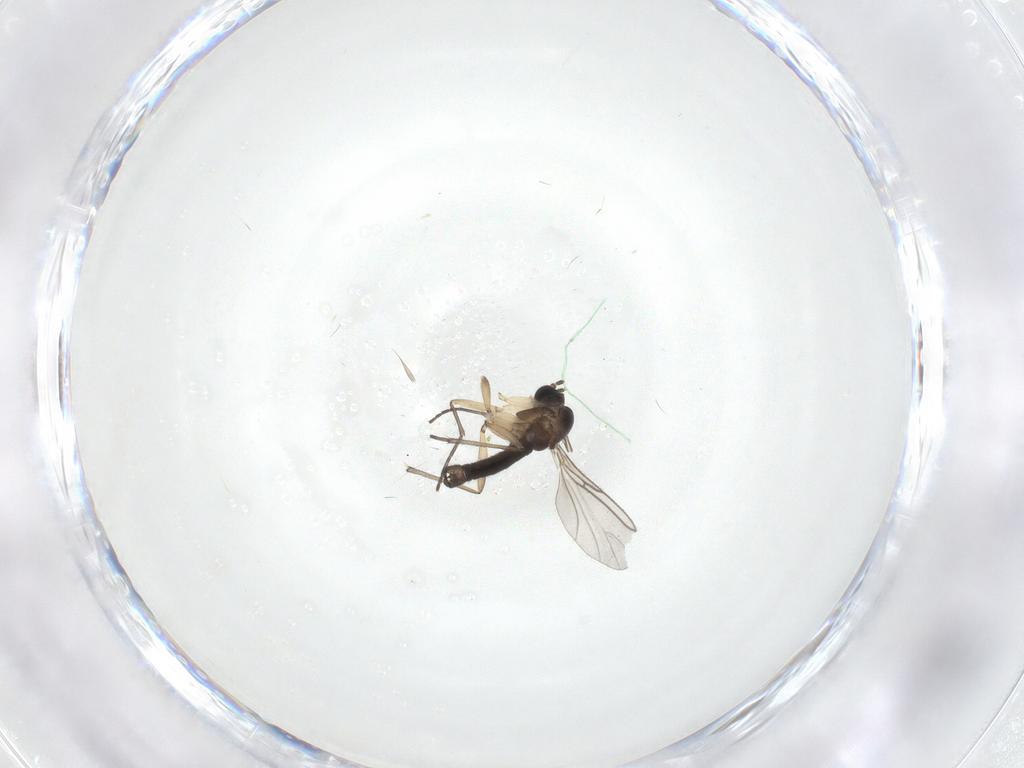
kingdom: Animalia
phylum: Arthropoda
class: Insecta
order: Diptera
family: Sciaridae
